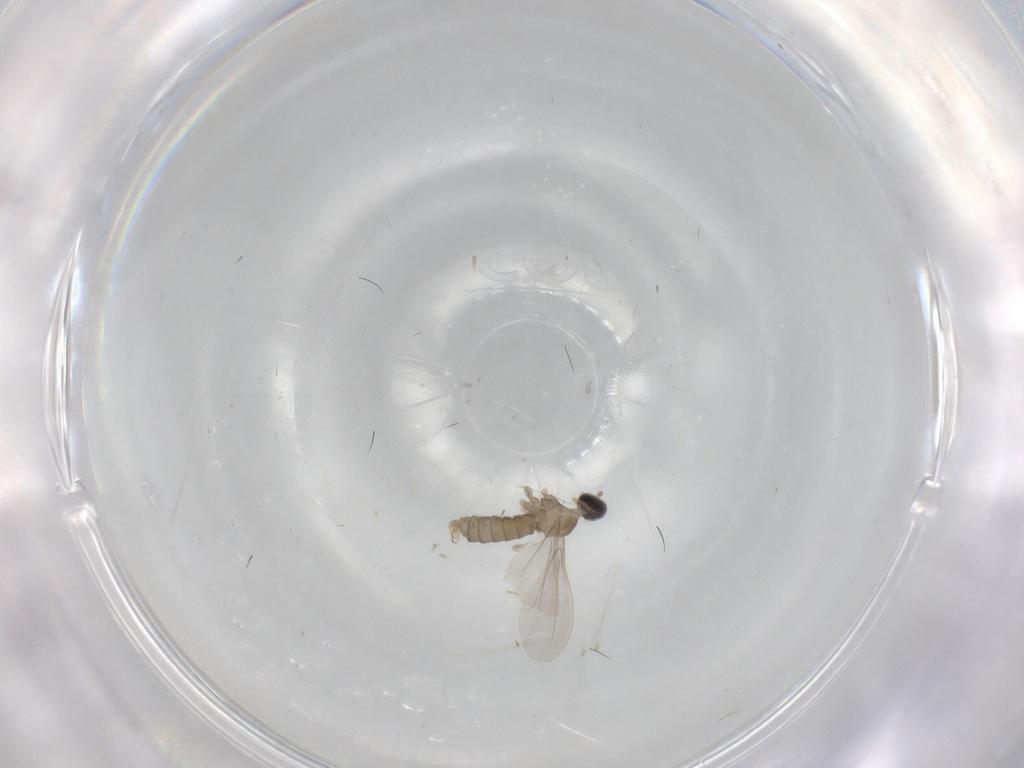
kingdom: Animalia
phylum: Arthropoda
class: Insecta
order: Diptera
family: Cecidomyiidae
